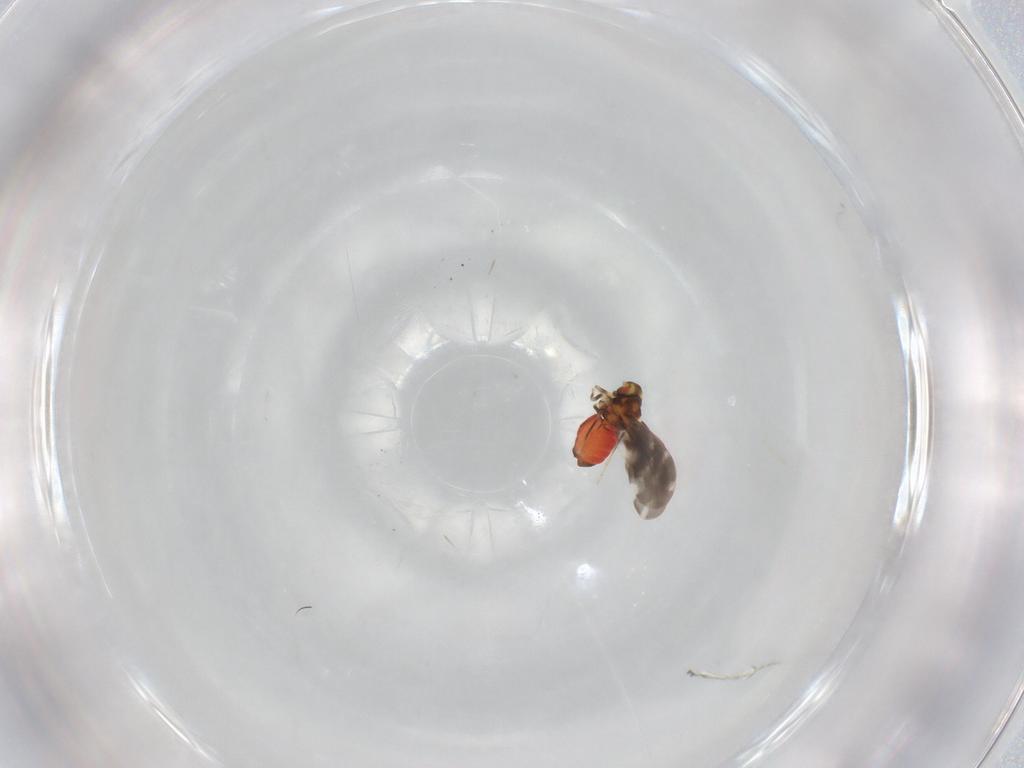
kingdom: Animalia
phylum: Arthropoda
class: Insecta
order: Hemiptera
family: Aleyrodidae
